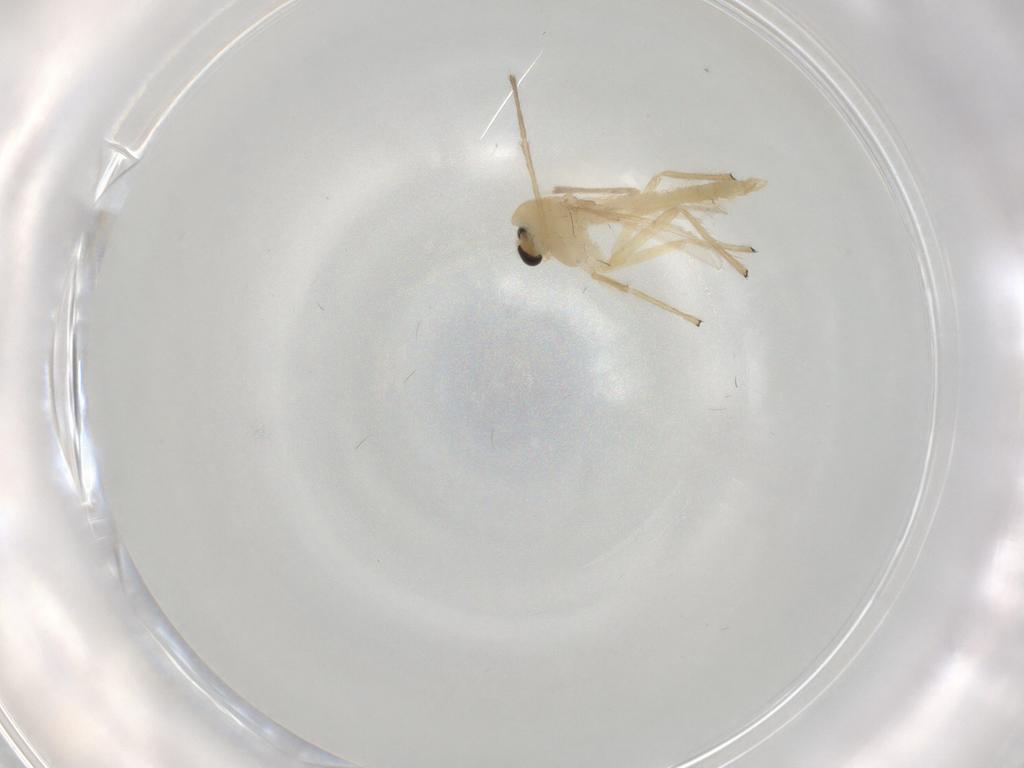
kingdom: Animalia
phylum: Arthropoda
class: Insecta
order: Diptera
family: Chironomidae
